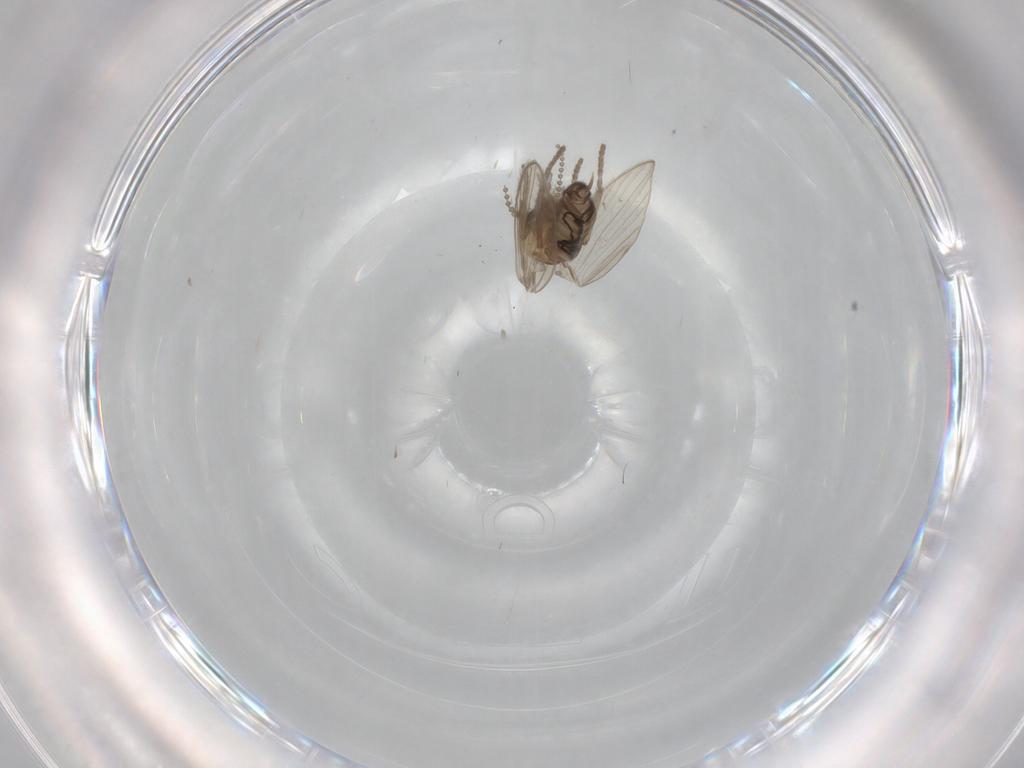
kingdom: Animalia
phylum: Arthropoda
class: Insecta
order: Diptera
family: Psychodidae
